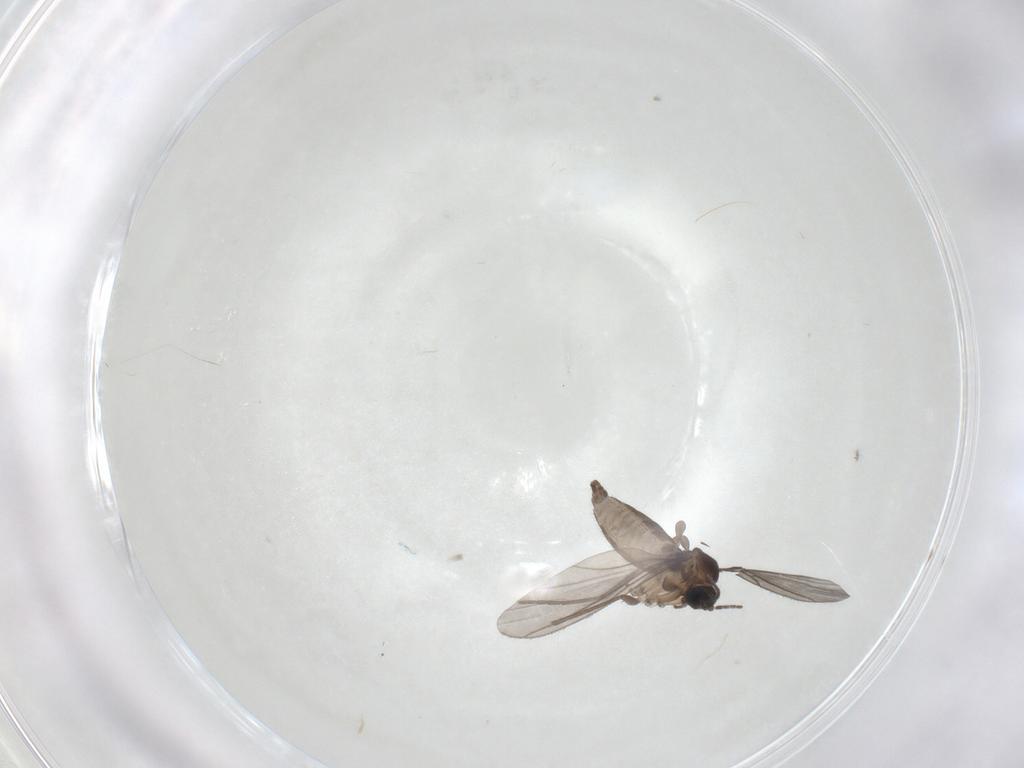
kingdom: Animalia
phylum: Arthropoda
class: Insecta
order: Diptera
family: Sciaridae
